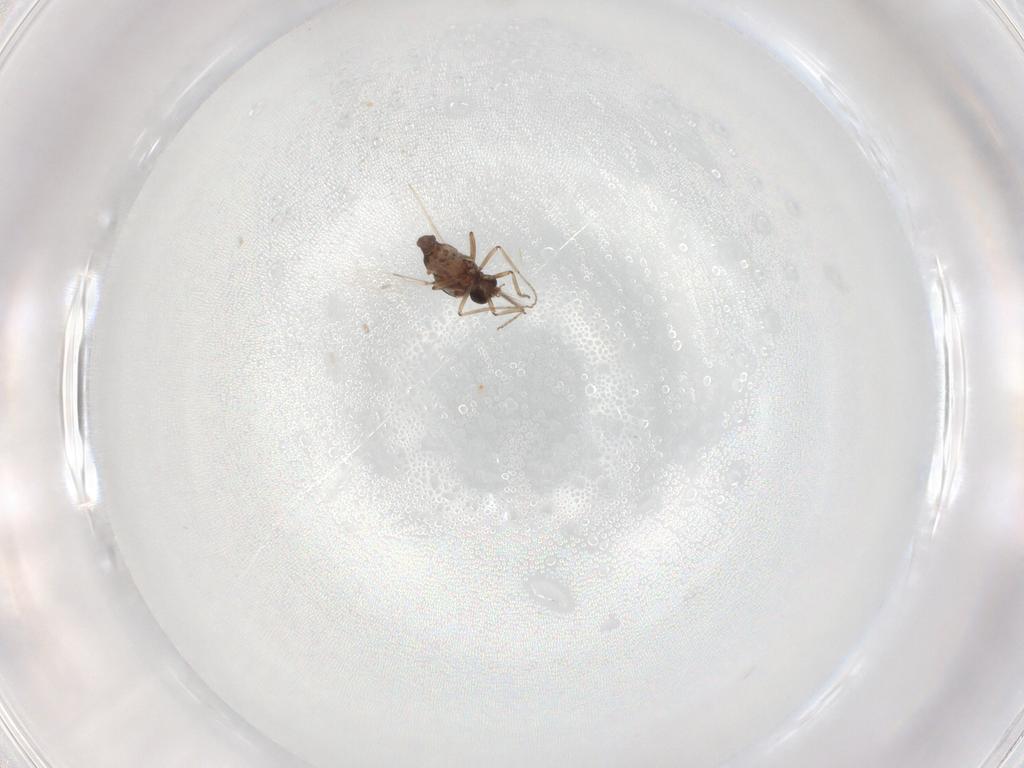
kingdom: Animalia
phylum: Arthropoda
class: Insecta
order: Diptera
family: Ceratopogonidae
